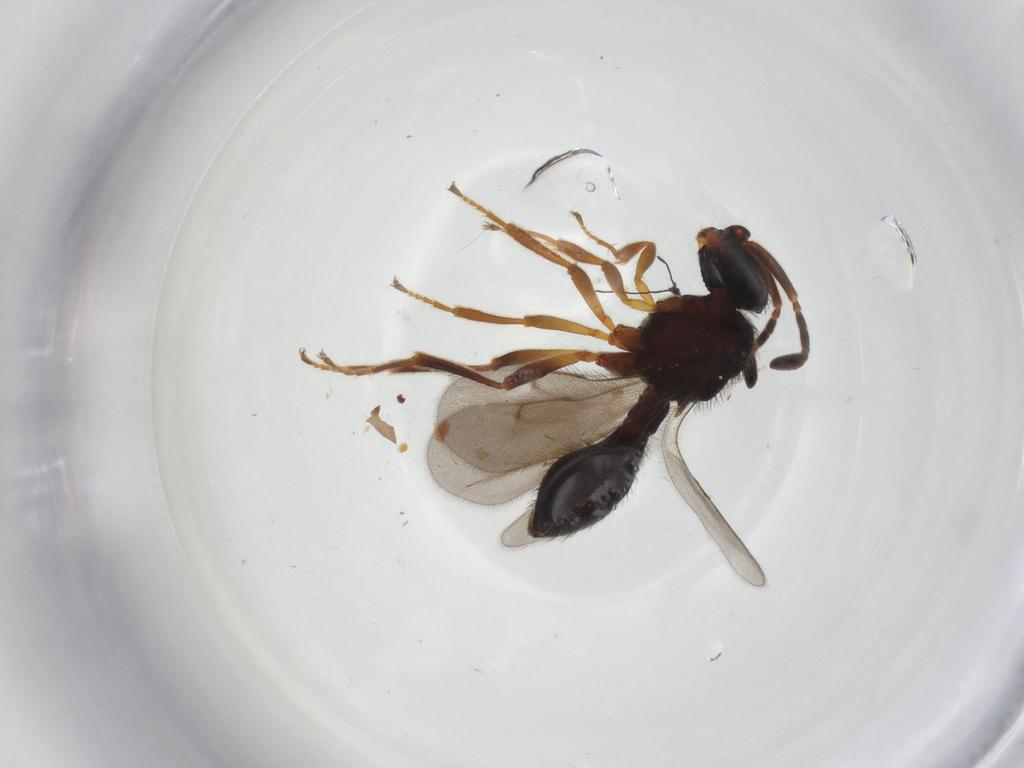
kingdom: Animalia
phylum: Arthropoda
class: Insecta
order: Hymenoptera
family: Scelionidae
